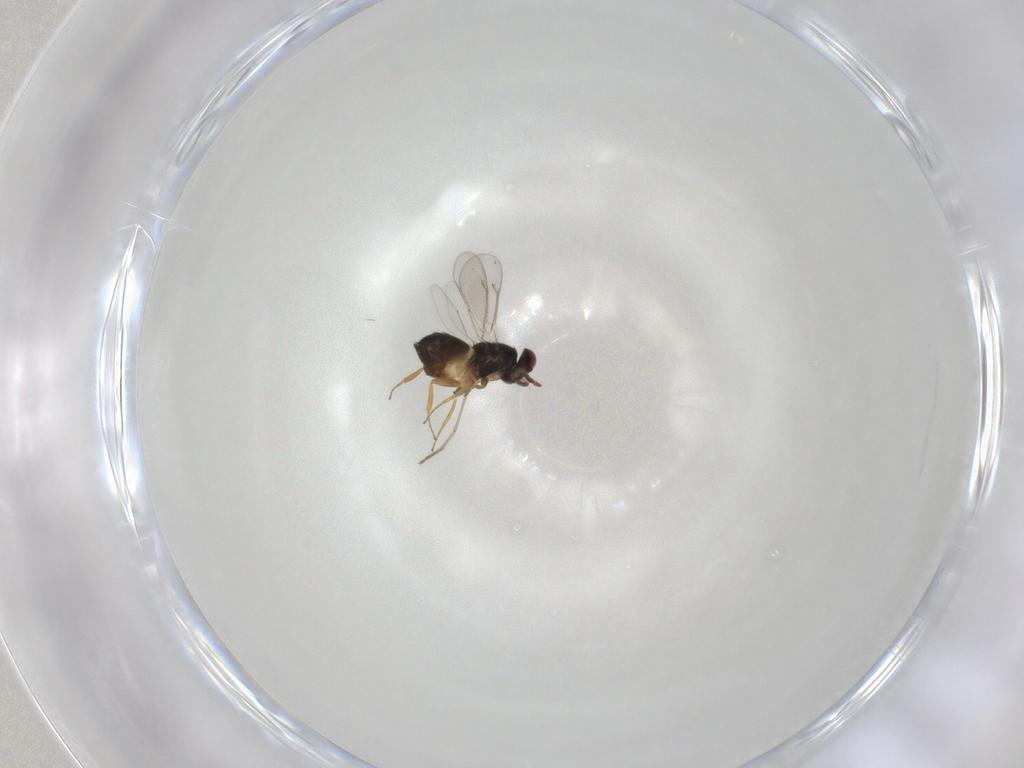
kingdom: Animalia
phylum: Arthropoda
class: Insecta
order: Hymenoptera
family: Eulophidae
